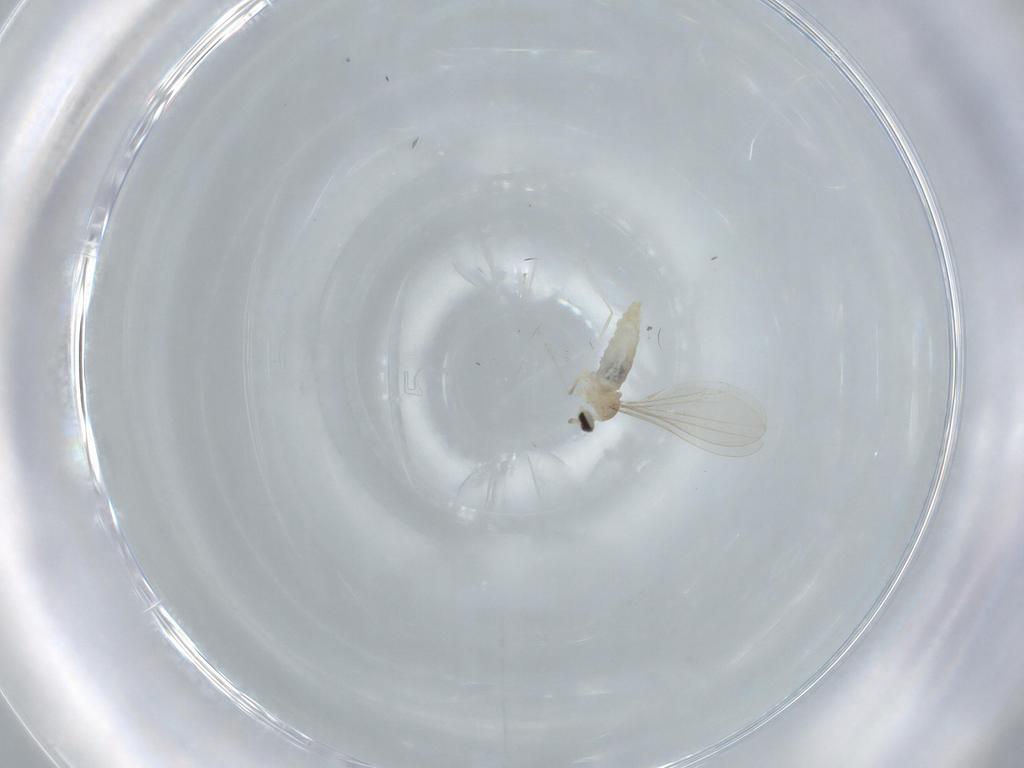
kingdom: Animalia
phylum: Arthropoda
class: Insecta
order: Diptera
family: Cecidomyiidae
